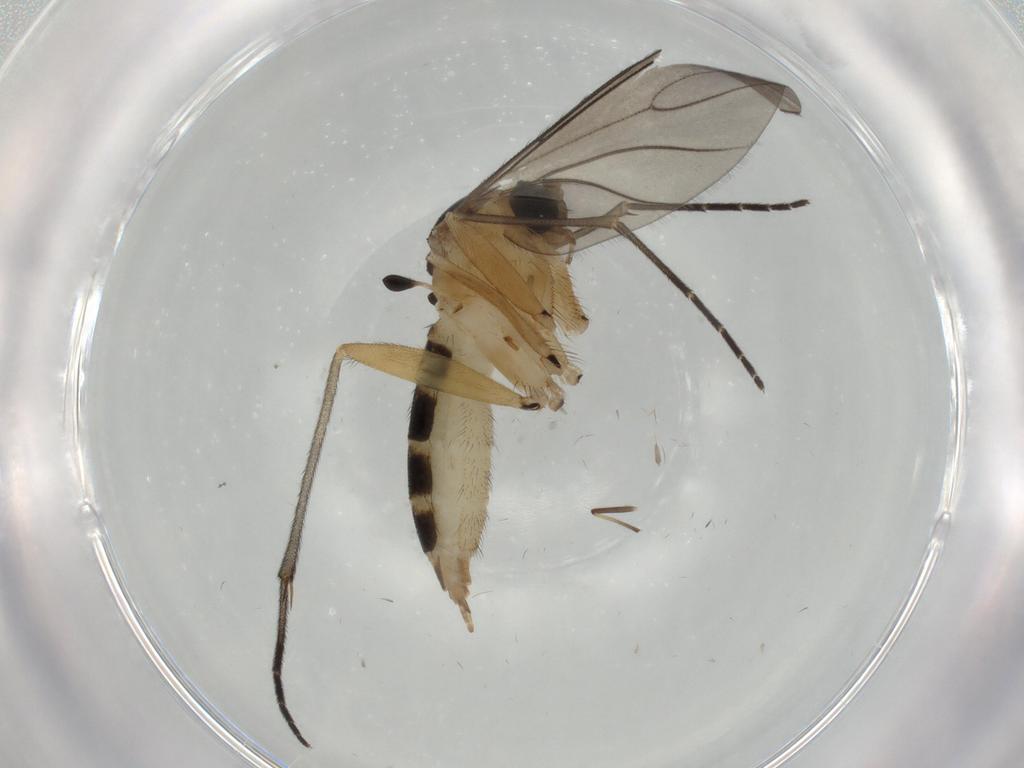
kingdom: Animalia
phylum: Arthropoda
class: Insecta
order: Diptera
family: Sciaridae
